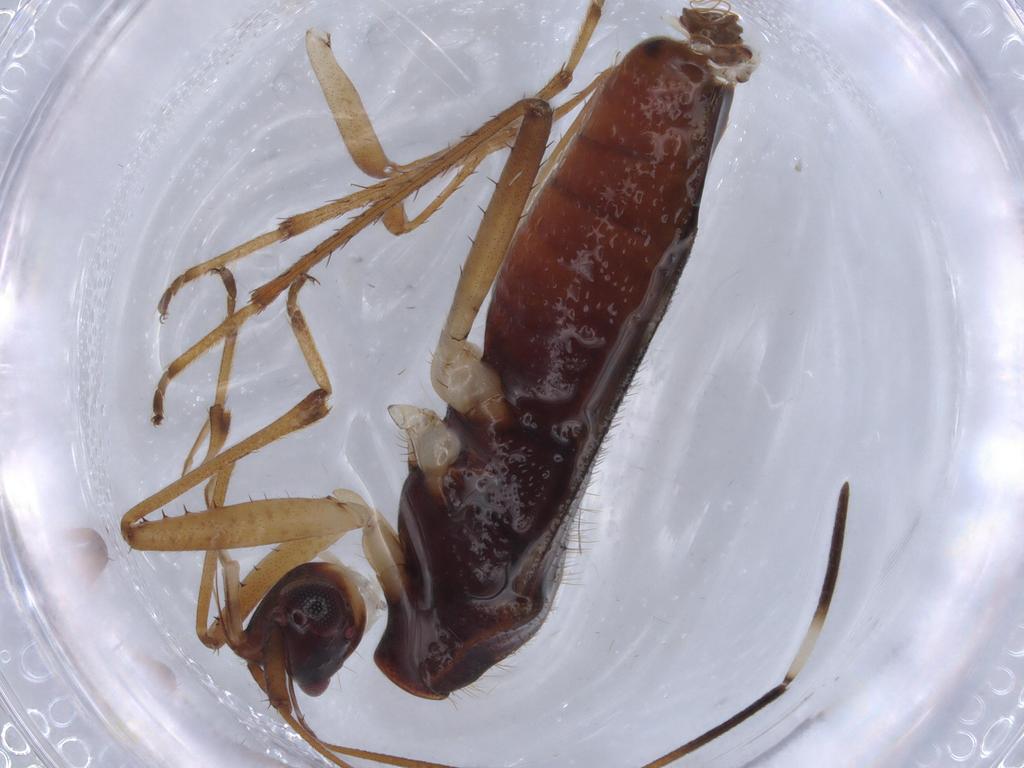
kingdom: Animalia
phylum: Arthropoda
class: Insecta
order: Hemiptera
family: Rhyparochromidae
